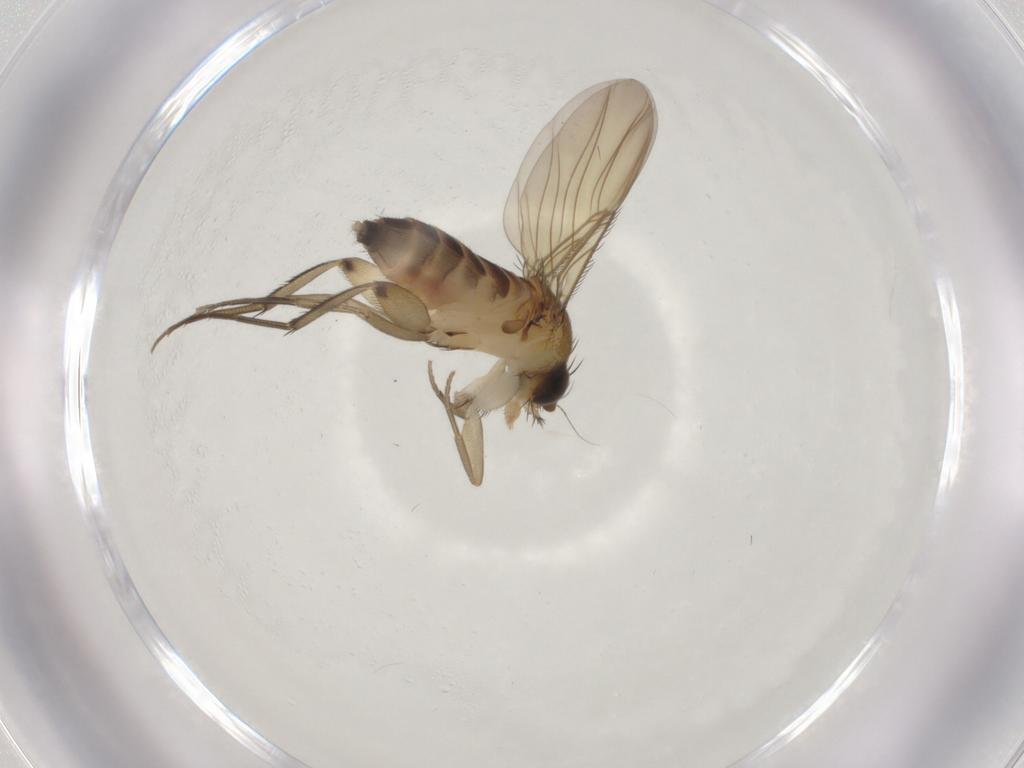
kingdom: Animalia
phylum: Arthropoda
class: Insecta
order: Diptera
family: Phoridae
